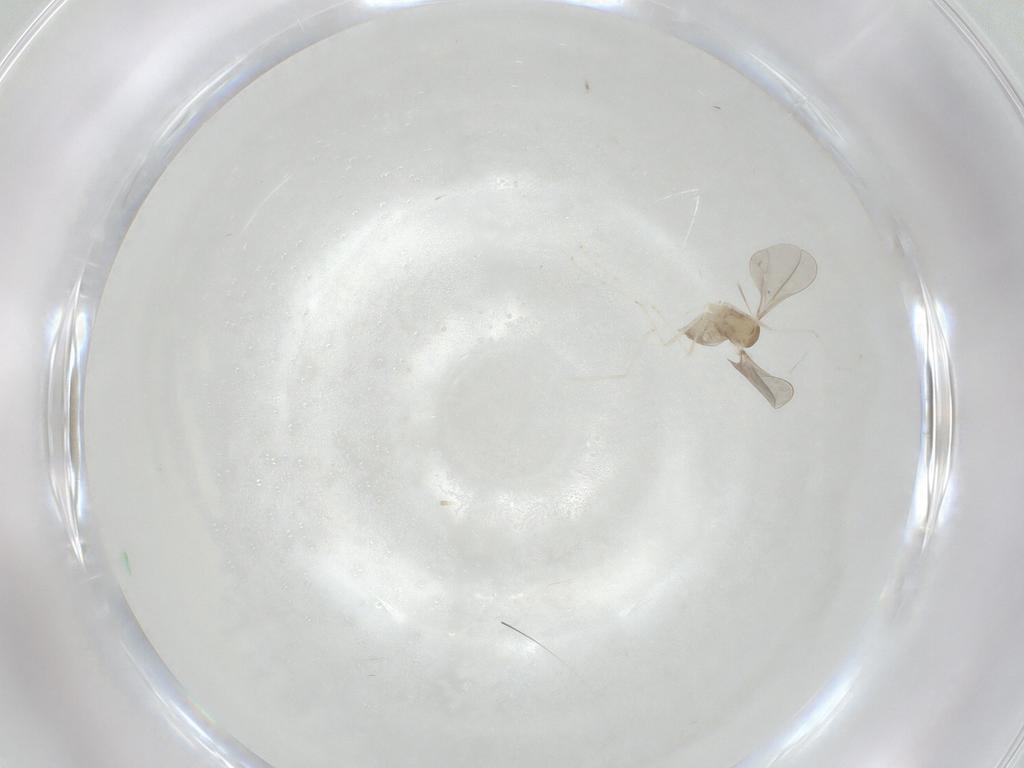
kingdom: Animalia
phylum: Arthropoda
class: Insecta
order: Diptera
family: Cecidomyiidae
